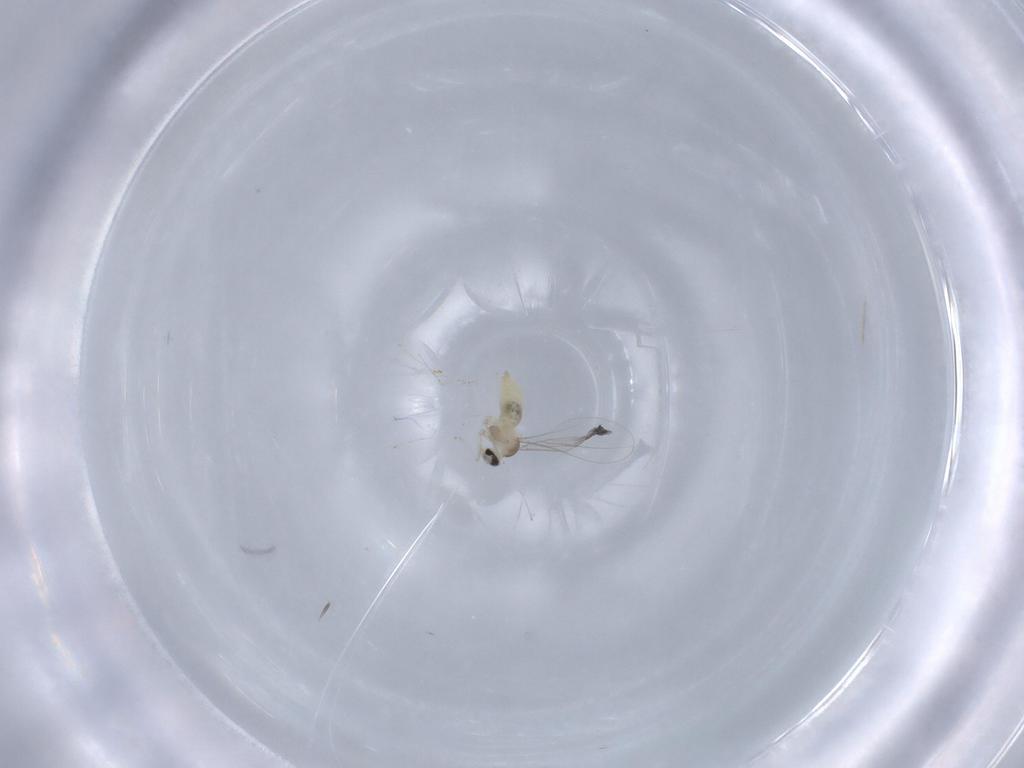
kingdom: Animalia
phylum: Arthropoda
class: Insecta
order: Diptera
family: Cecidomyiidae
